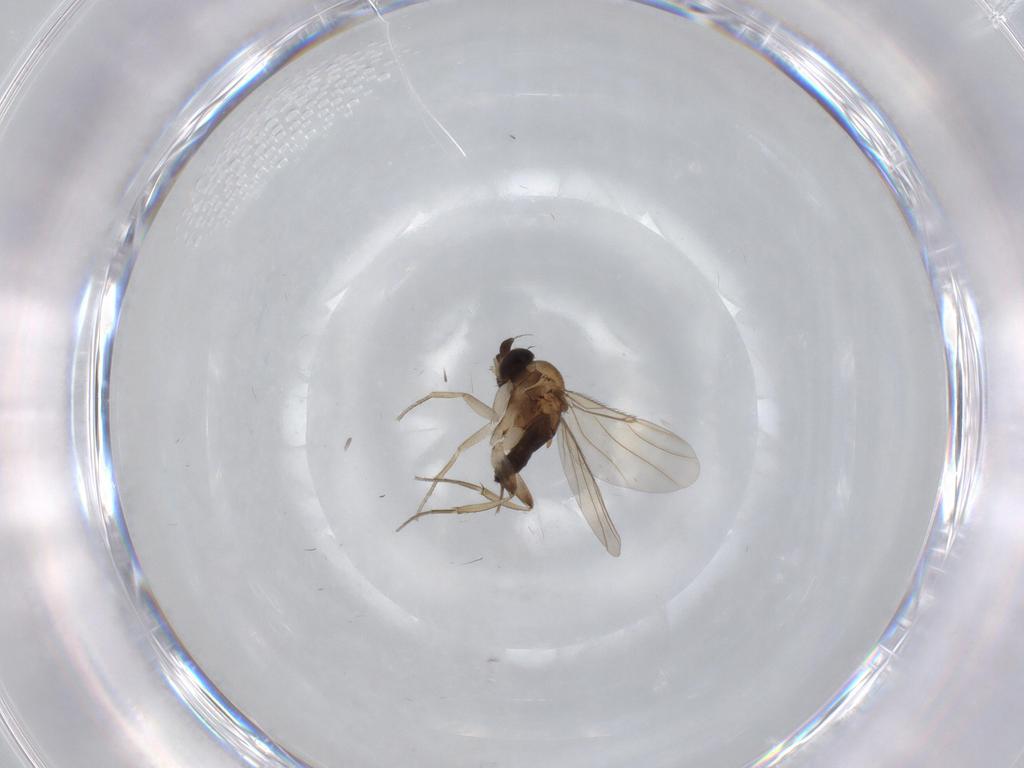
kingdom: Animalia
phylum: Arthropoda
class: Insecta
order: Diptera
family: Phoridae
